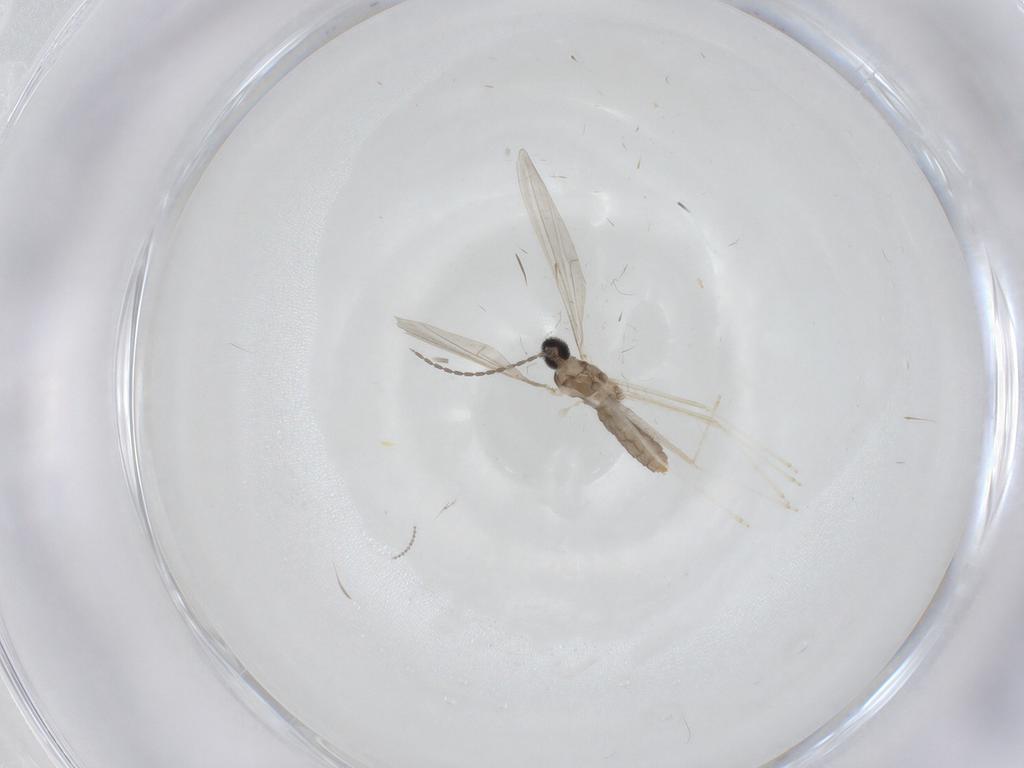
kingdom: Animalia
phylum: Arthropoda
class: Insecta
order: Diptera
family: Cecidomyiidae
